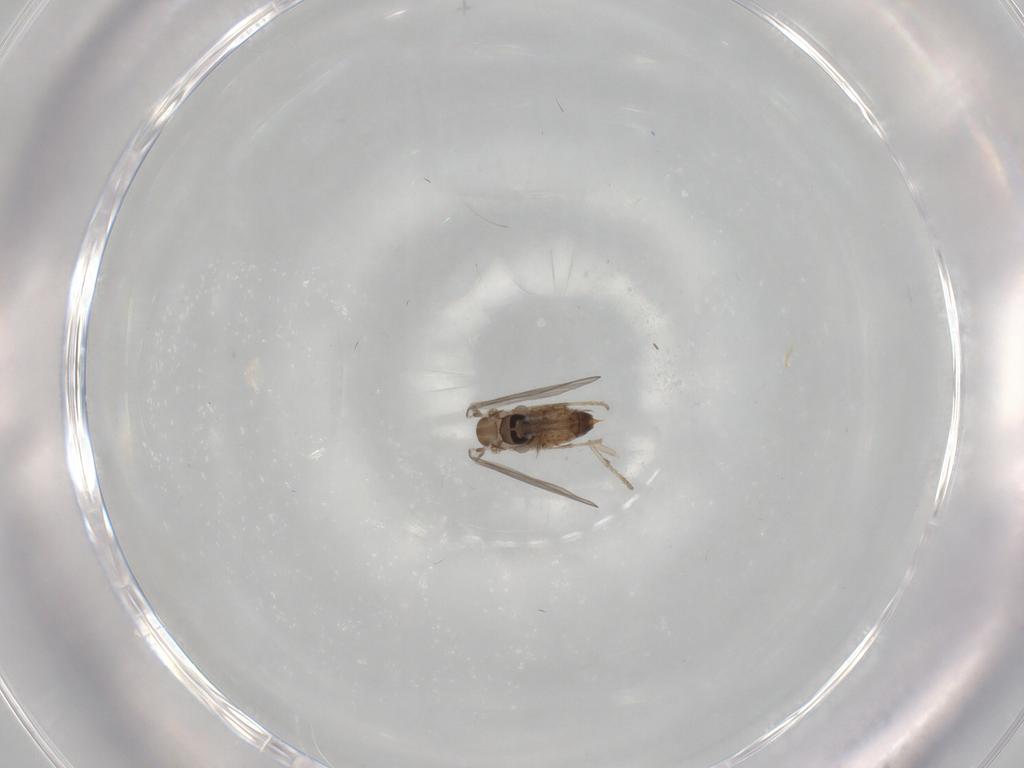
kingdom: Animalia
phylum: Arthropoda
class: Insecta
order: Diptera
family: Psychodidae
